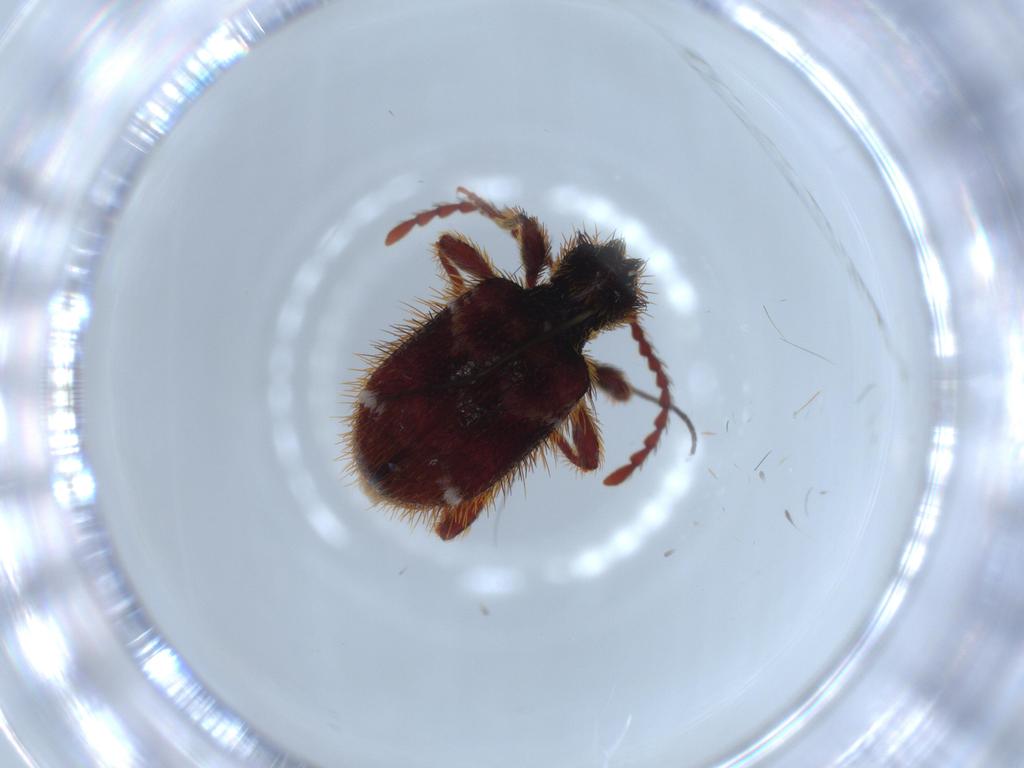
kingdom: Animalia
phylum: Arthropoda
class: Insecta
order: Coleoptera
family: Ptinidae
